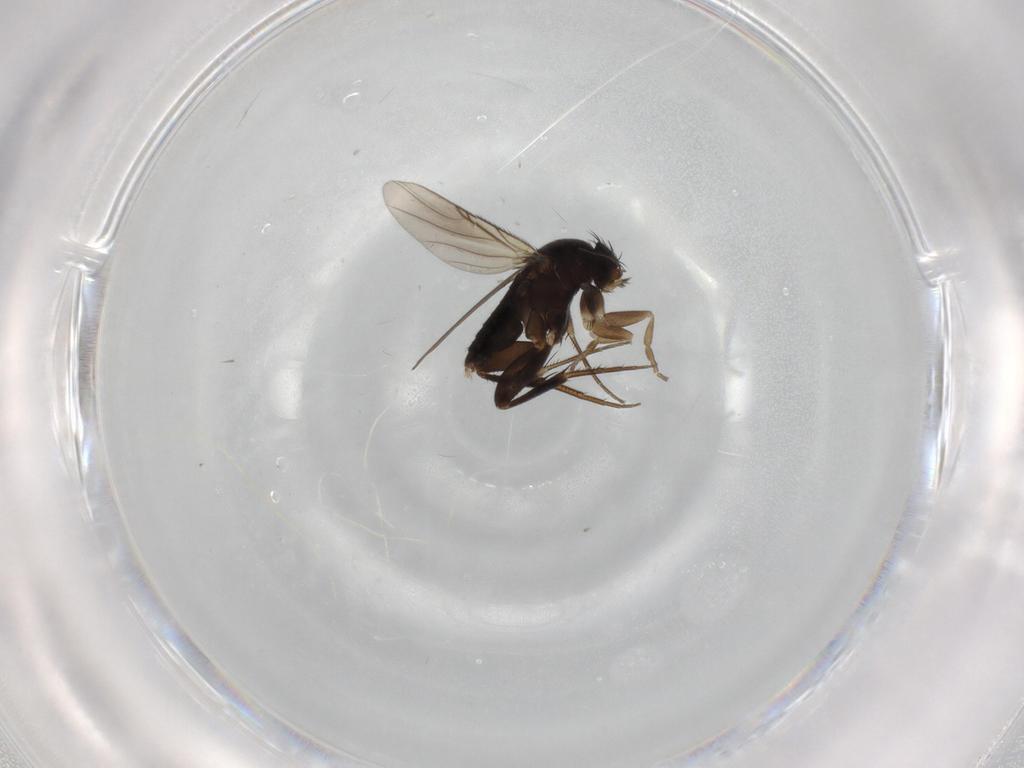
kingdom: Animalia
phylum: Arthropoda
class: Insecta
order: Diptera
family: Phoridae
